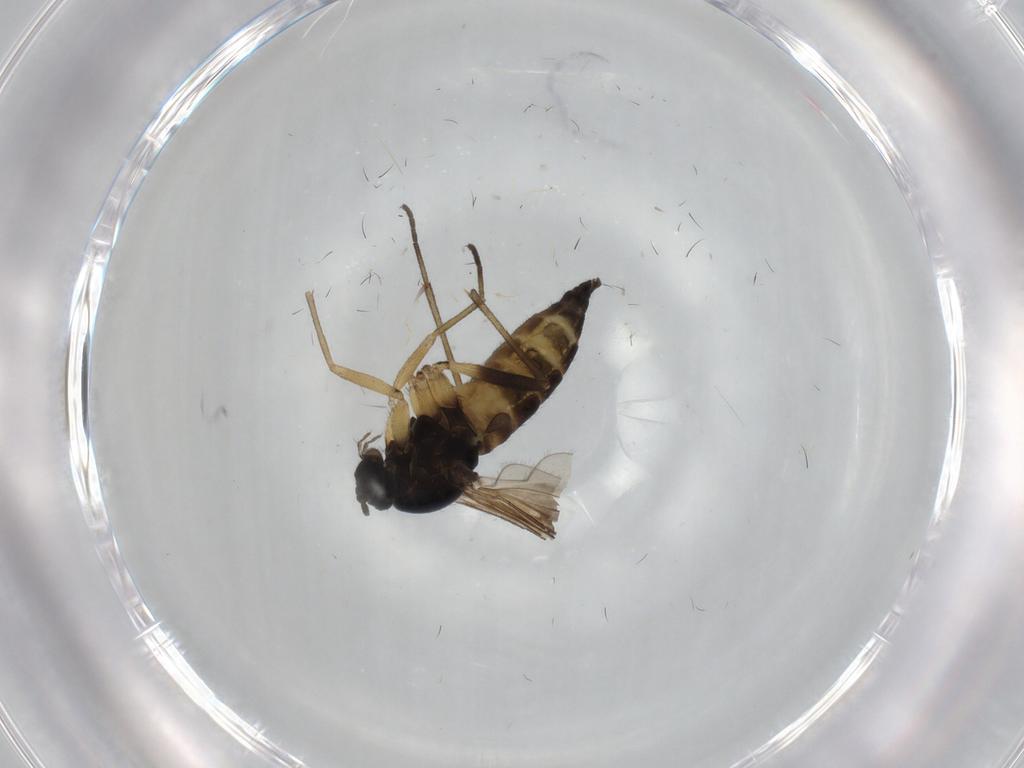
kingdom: Animalia
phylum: Arthropoda
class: Insecta
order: Diptera
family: Sciaridae
